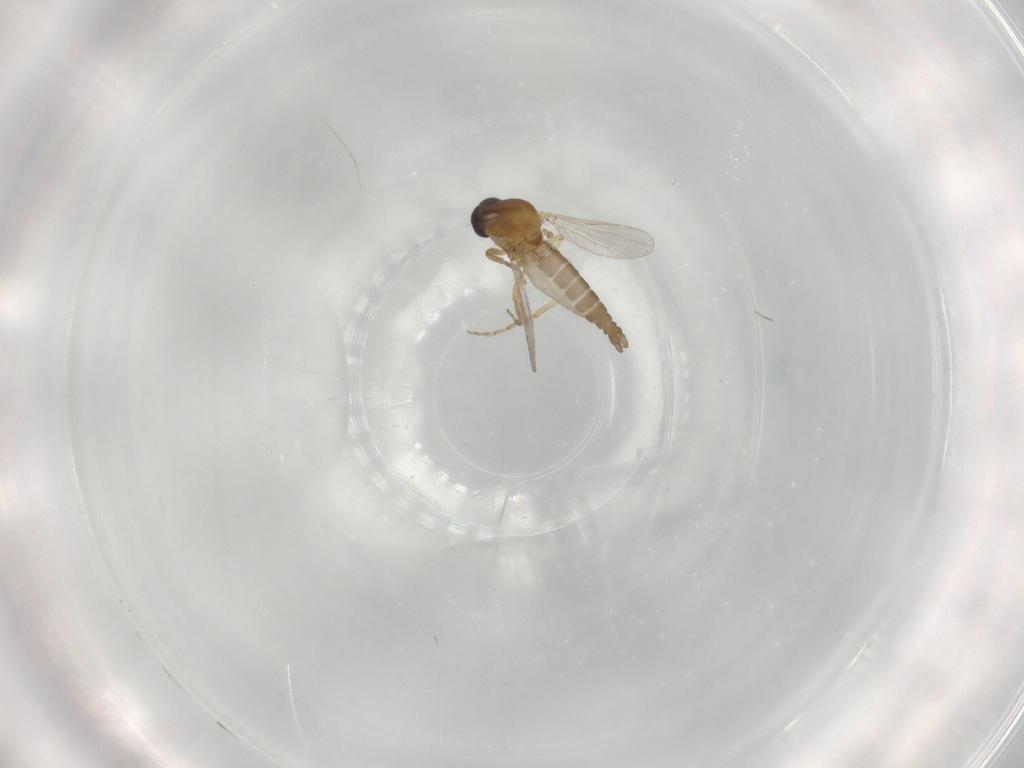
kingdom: Animalia
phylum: Arthropoda
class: Insecta
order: Diptera
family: Ceratopogonidae
